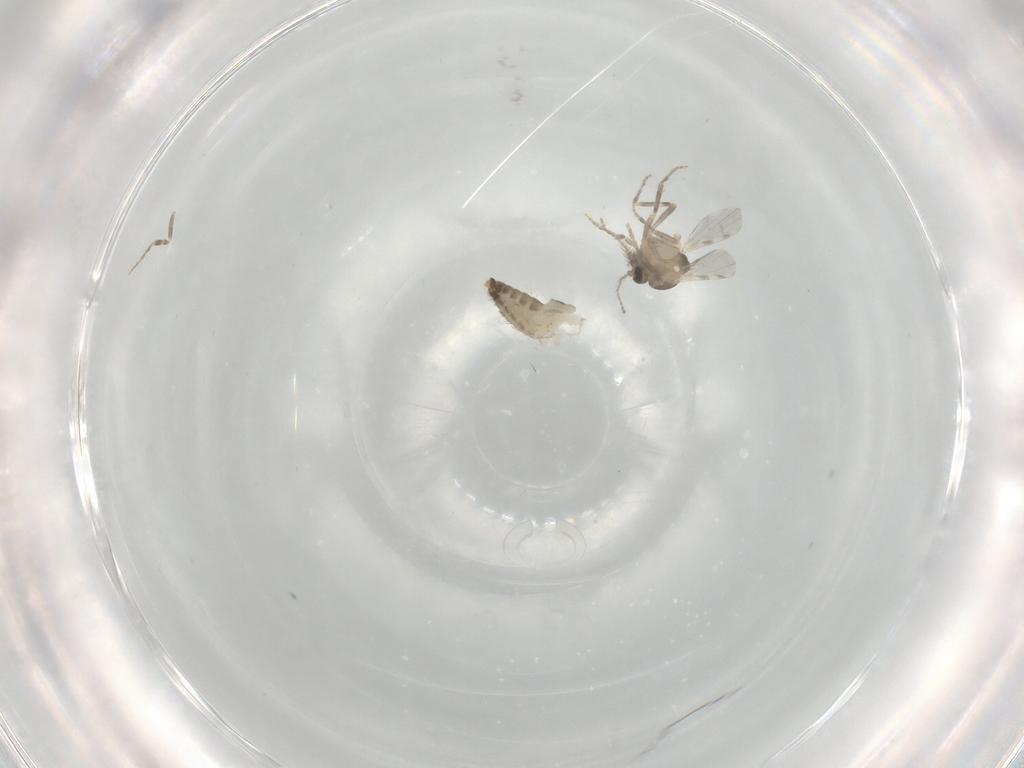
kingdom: Animalia
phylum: Arthropoda
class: Insecta
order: Diptera
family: Ceratopogonidae
